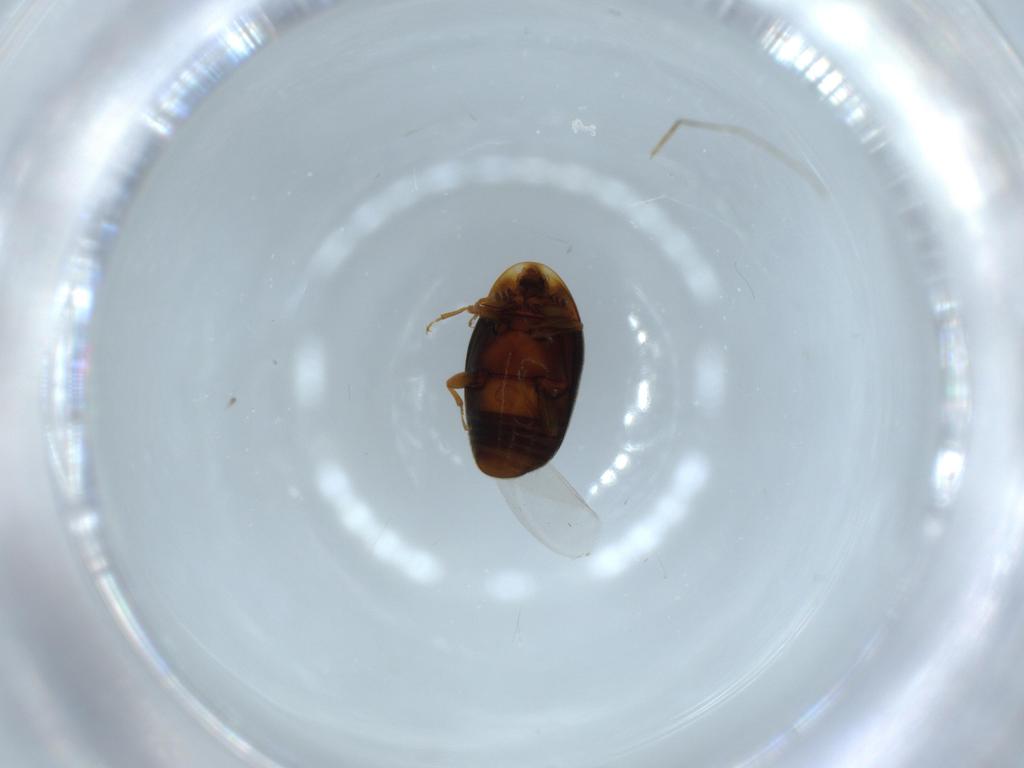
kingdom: Animalia
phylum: Arthropoda
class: Insecta
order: Coleoptera
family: Corylophidae
